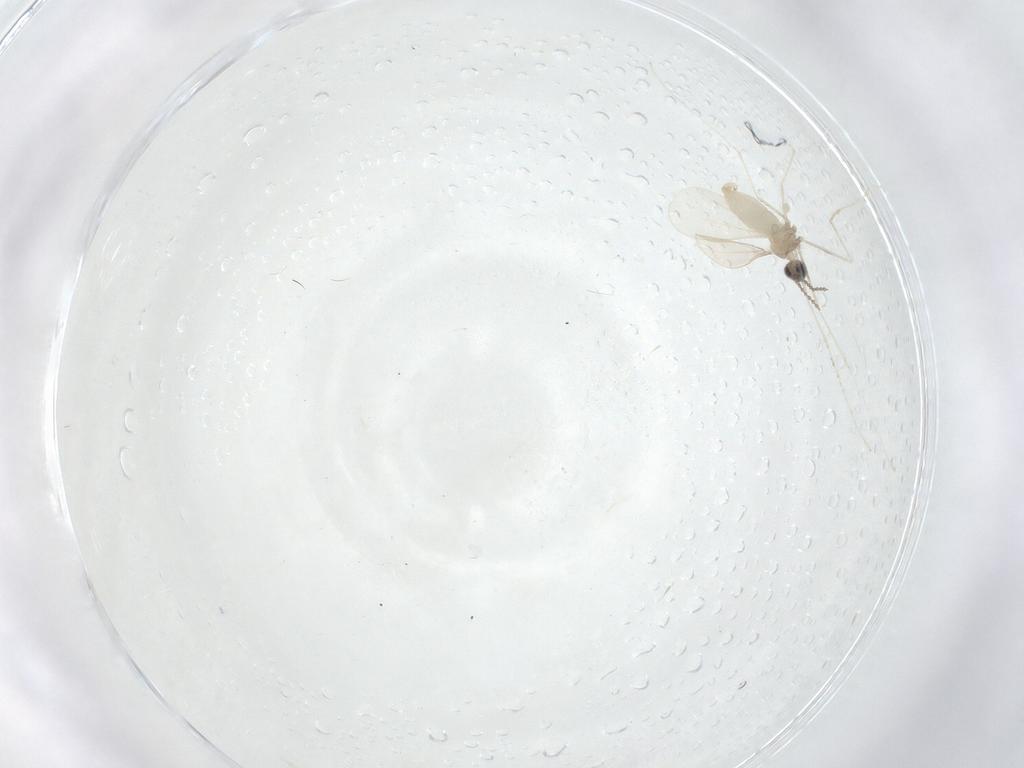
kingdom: Animalia
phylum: Arthropoda
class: Insecta
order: Diptera
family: Cecidomyiidae
